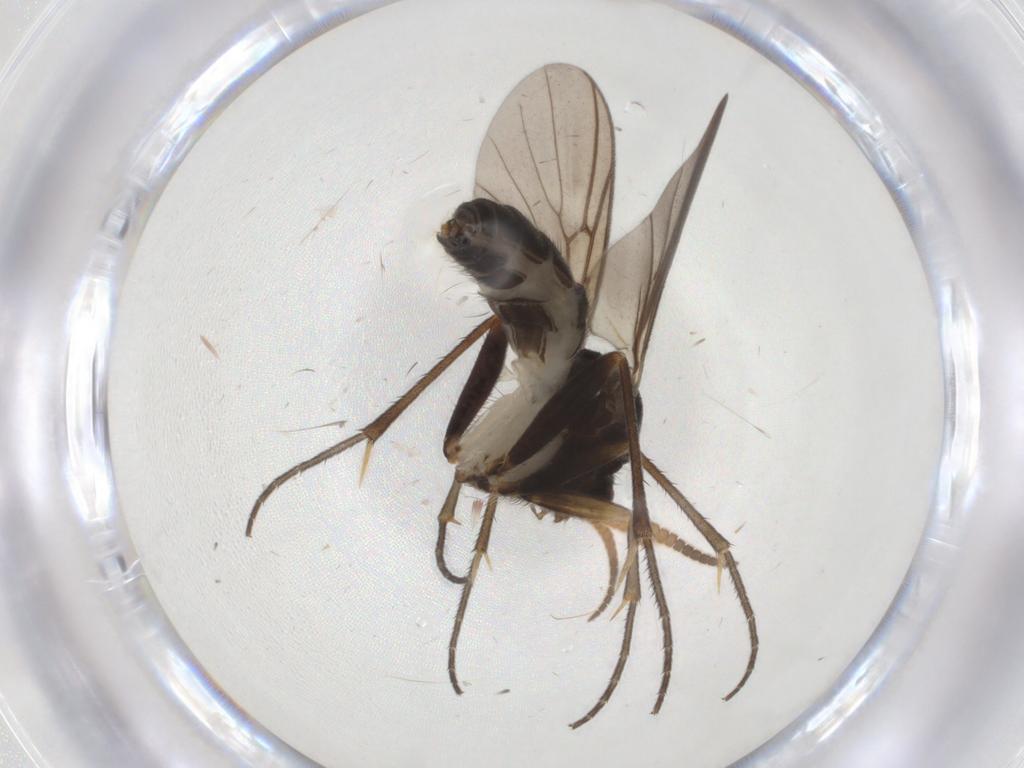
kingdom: Animalia
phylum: Arthropoda
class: Insecta
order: Diptera
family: Mycetophilidae
